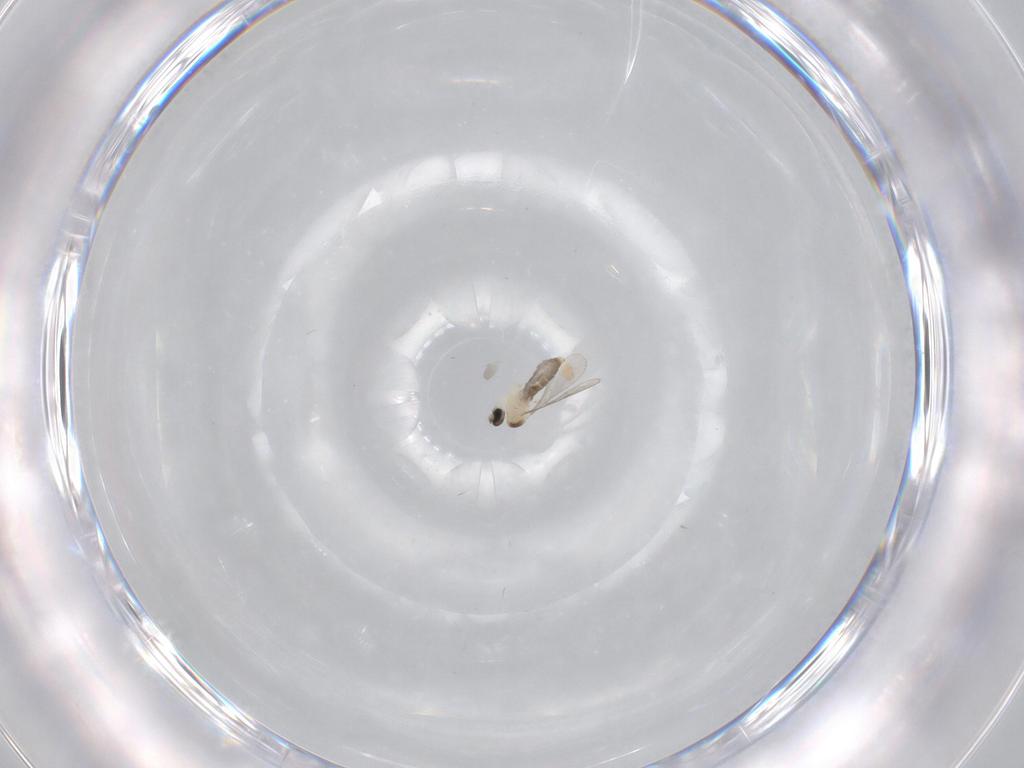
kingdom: Animalia
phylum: Arthropoda
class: Insecta
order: Diptera
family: Cecidomyiidae
